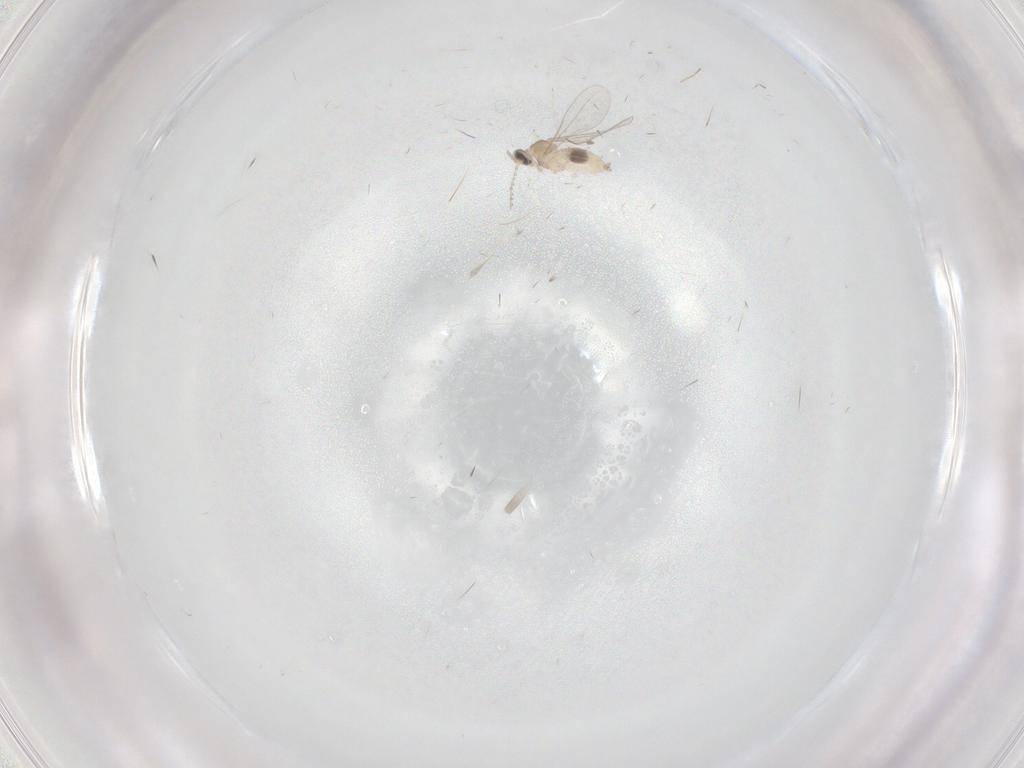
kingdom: Animalia
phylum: Arthropoda
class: Insecta
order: Diptera
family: Cecidomyiidae
